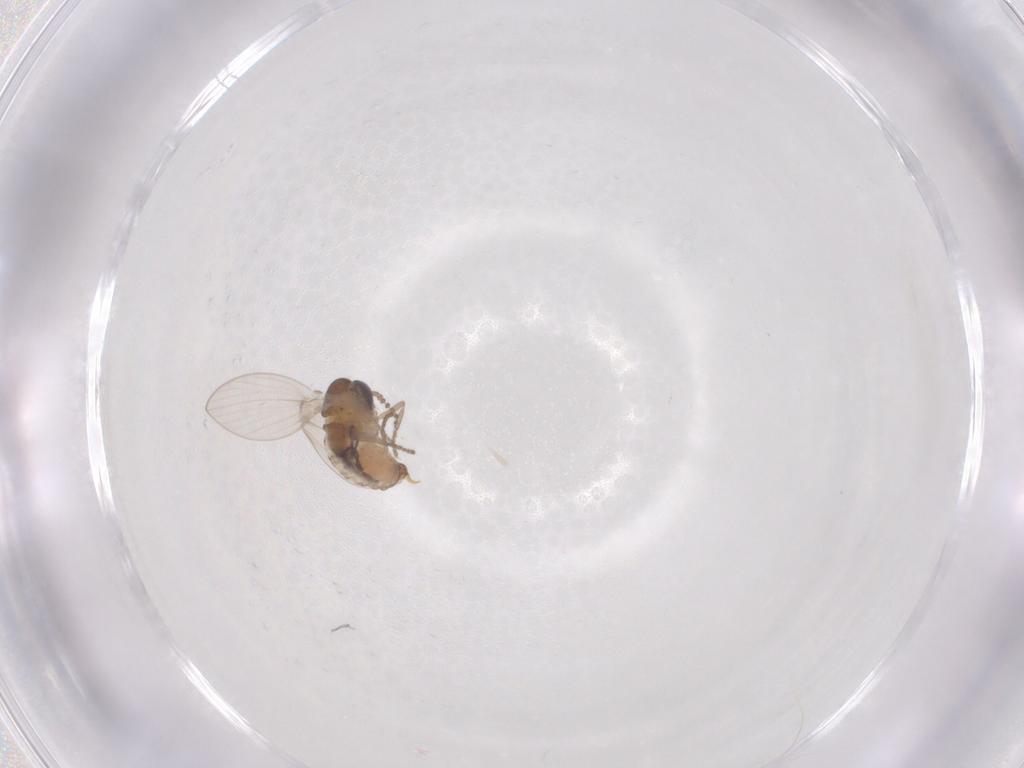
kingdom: Animalia
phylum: Arthropoda
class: Insecta
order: Diptera
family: Psychodidae
